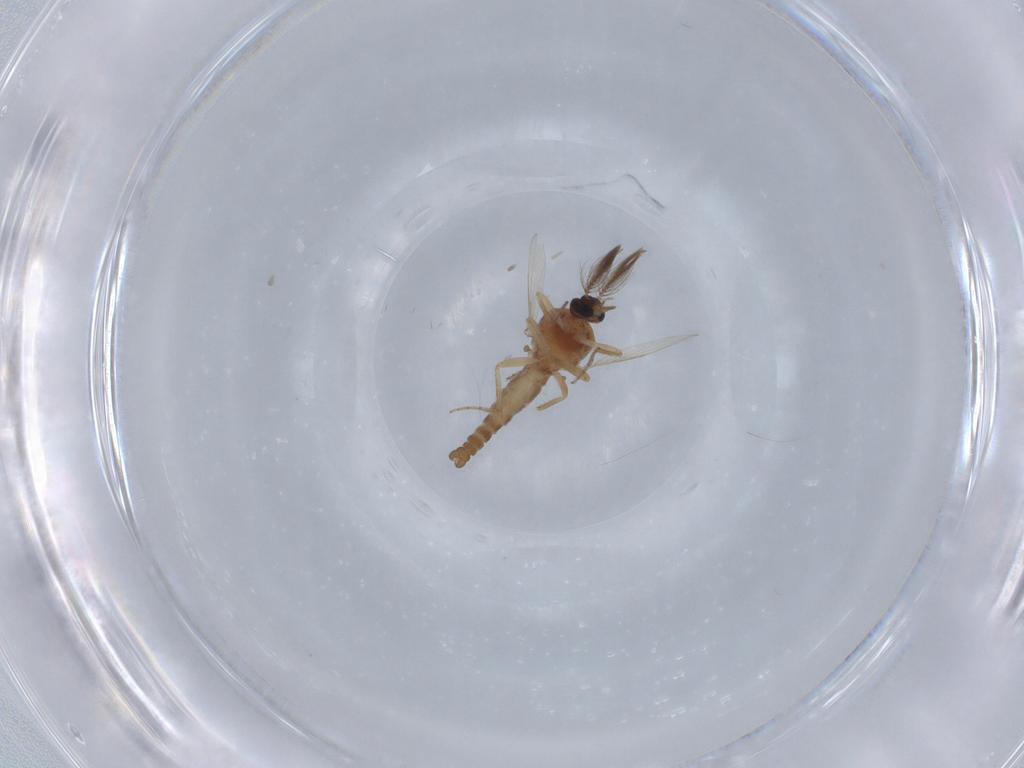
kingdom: Animalia
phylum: Arthropoda
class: Insecta
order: Diptera
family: Ceratopogonidae
